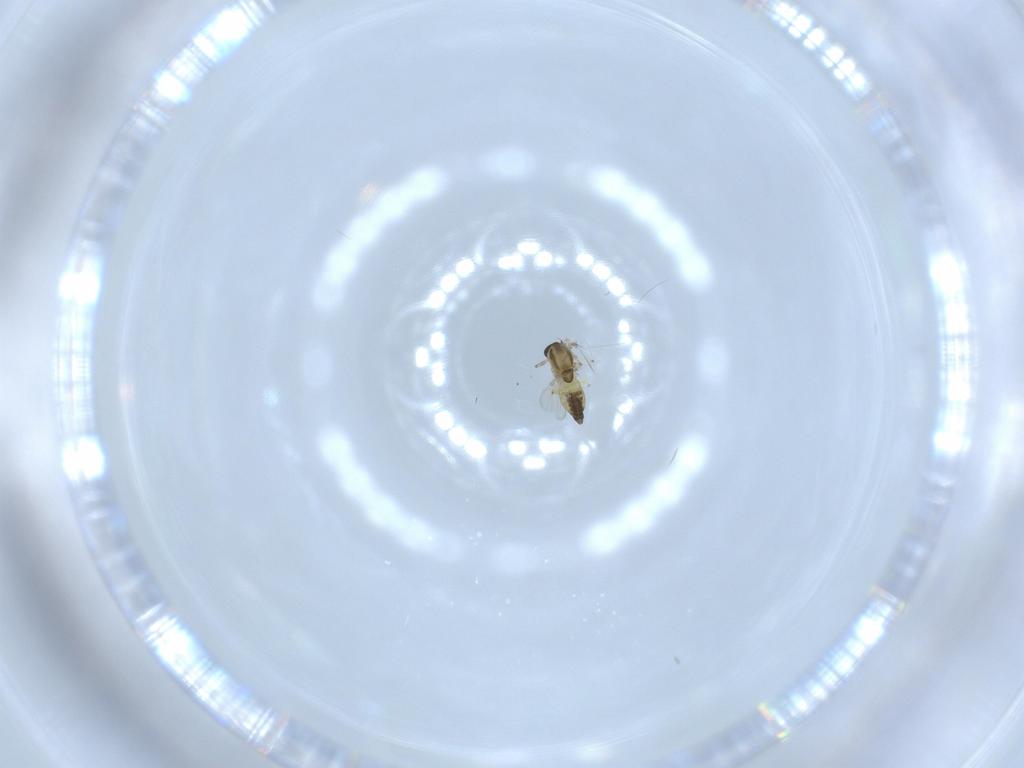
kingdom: Animalia
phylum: Arthropoda
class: Insecta
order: Diptera
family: Chironomidae
